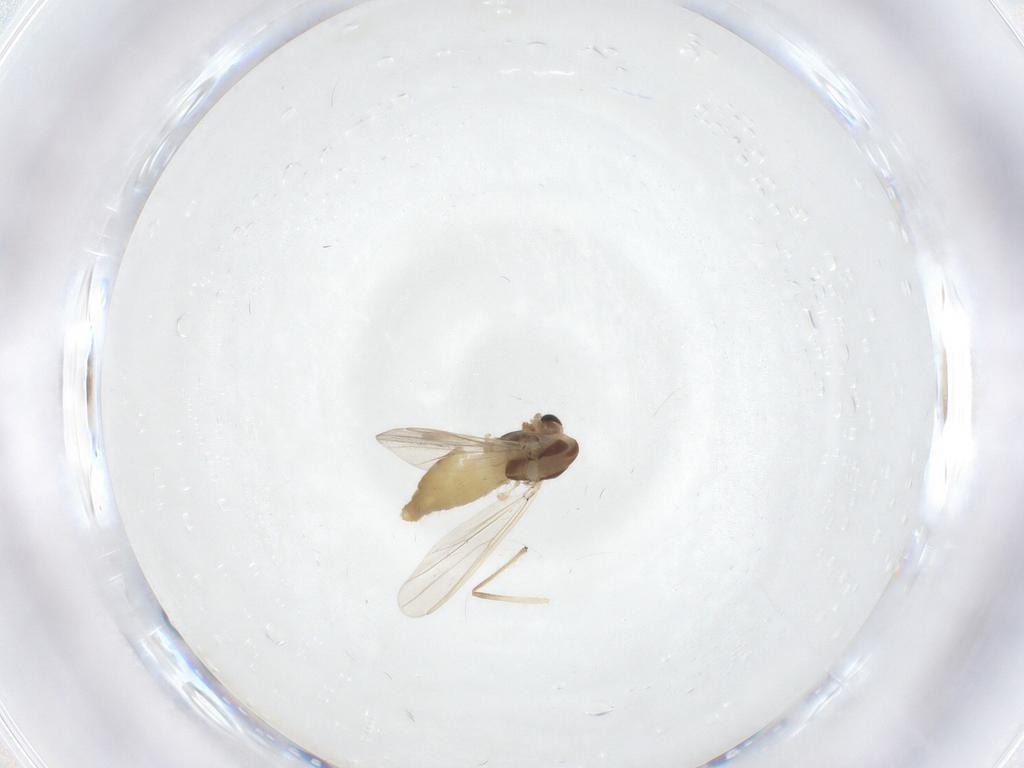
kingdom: Animalia
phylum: Arthropoda
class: Insecta
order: Diptera
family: Chironomidae
